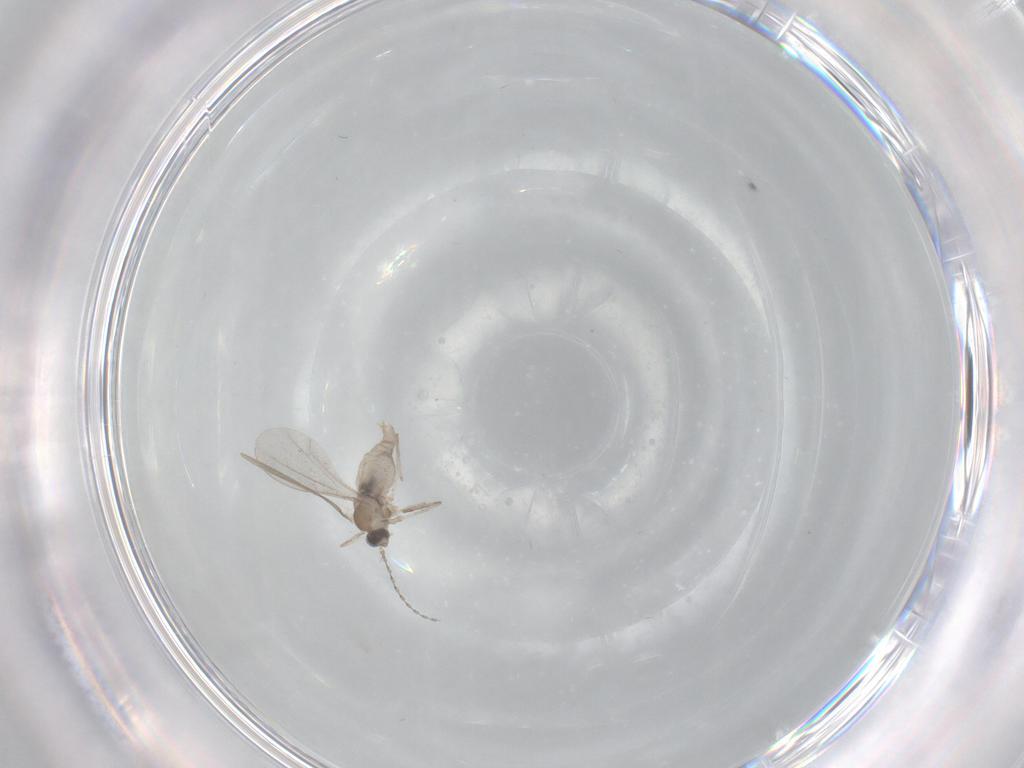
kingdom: Animalia
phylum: Arthropoda
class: Insecta
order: Diptera
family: Cecidomyiidae
